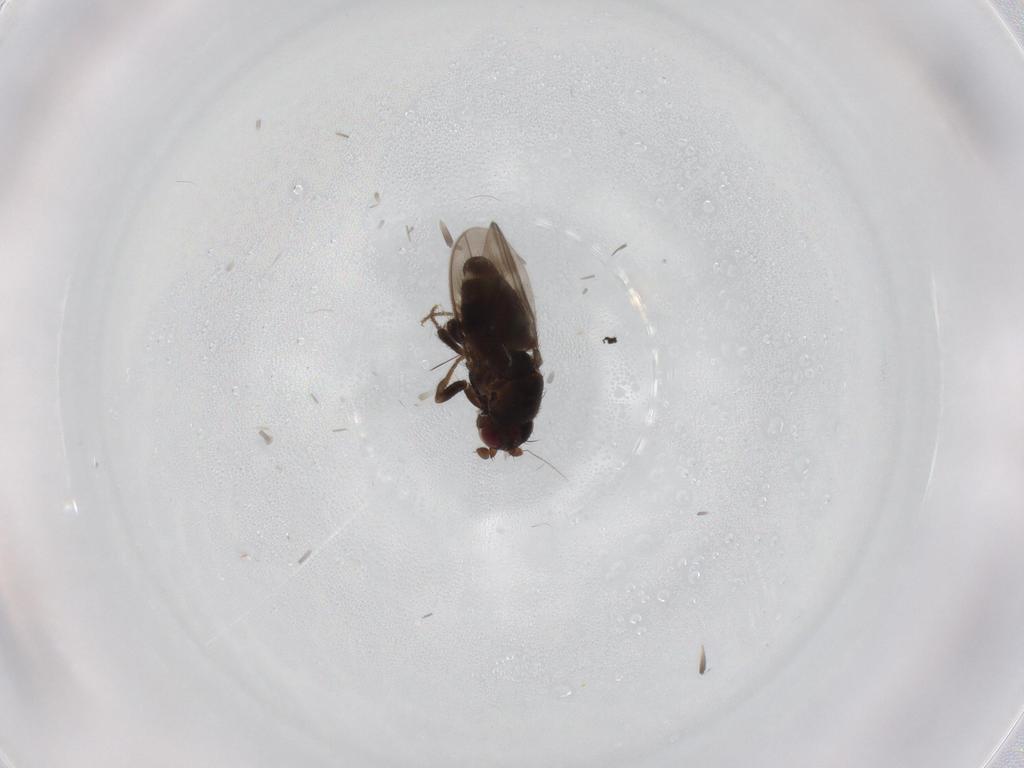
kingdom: Animalia
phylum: Arthropoda
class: Insecta
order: Diptera
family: Sphaeroceridae
